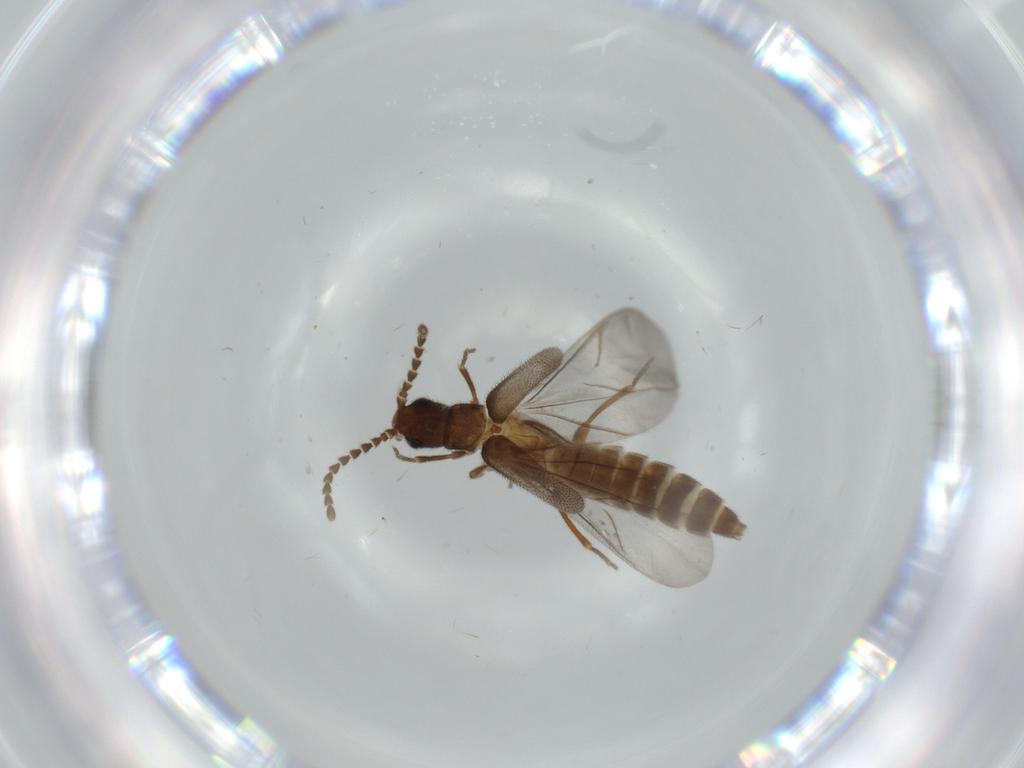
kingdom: Animalia
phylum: Arthropoda
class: Insecta
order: Coleoptera
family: Omethidae
